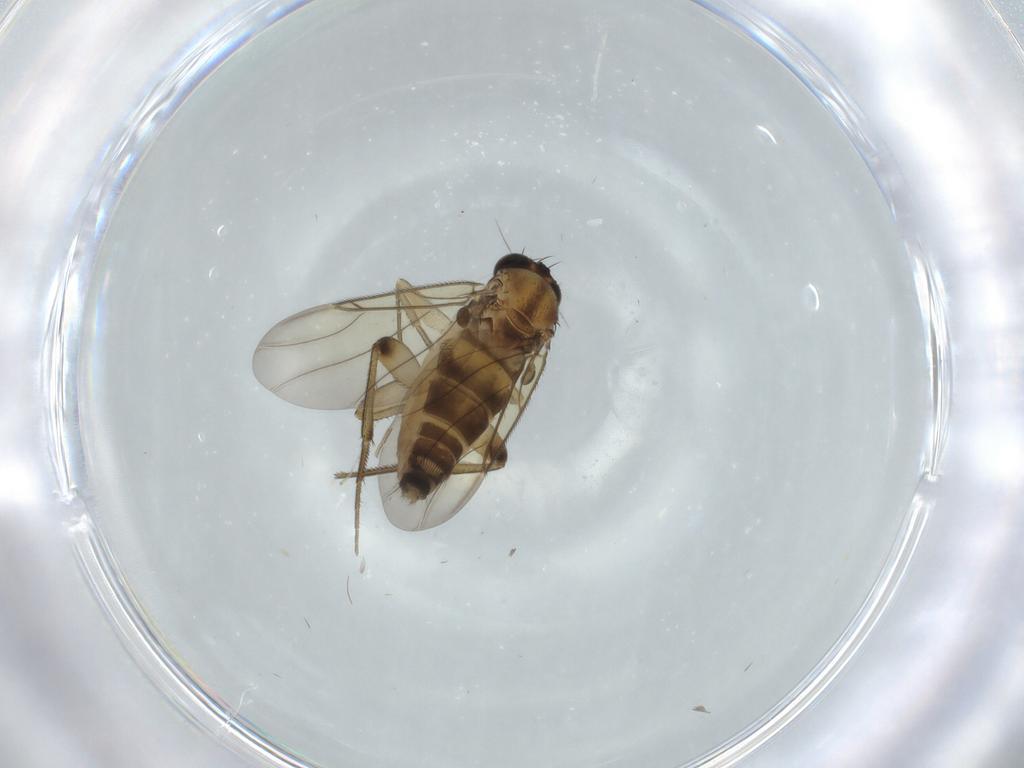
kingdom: Animalia
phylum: Arthropoda
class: Insecta
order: Diptera
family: Phoridae
